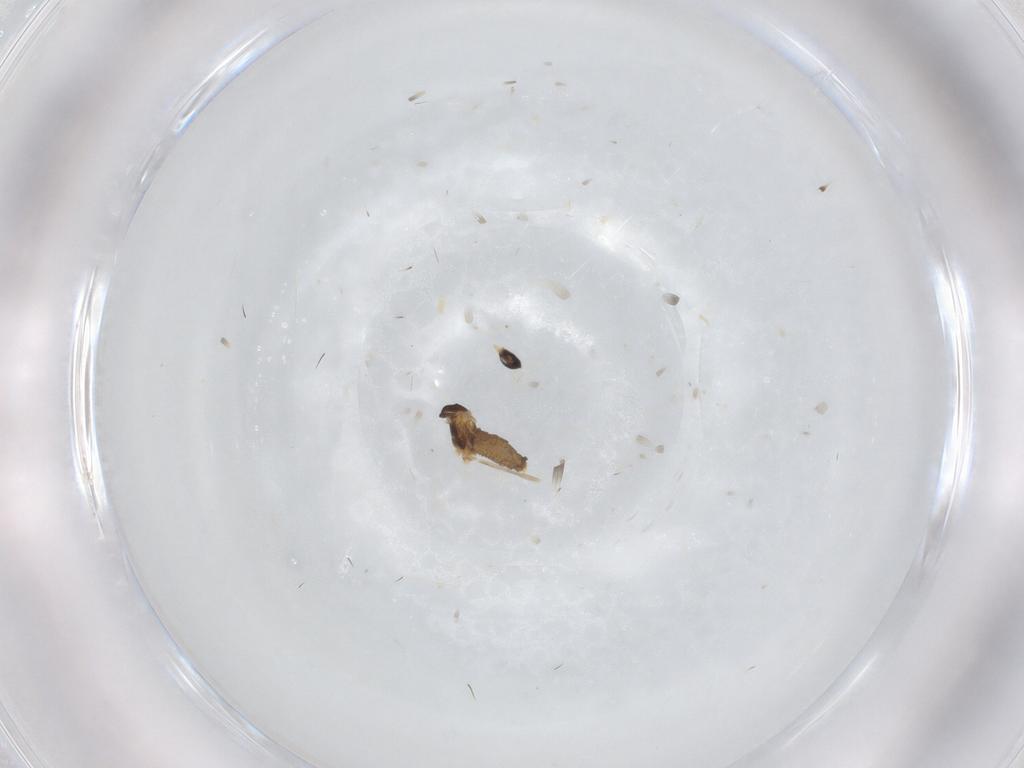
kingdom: Animalia
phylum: Arthropoda
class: Insecta
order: Diptera
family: Cecidomyiidae
